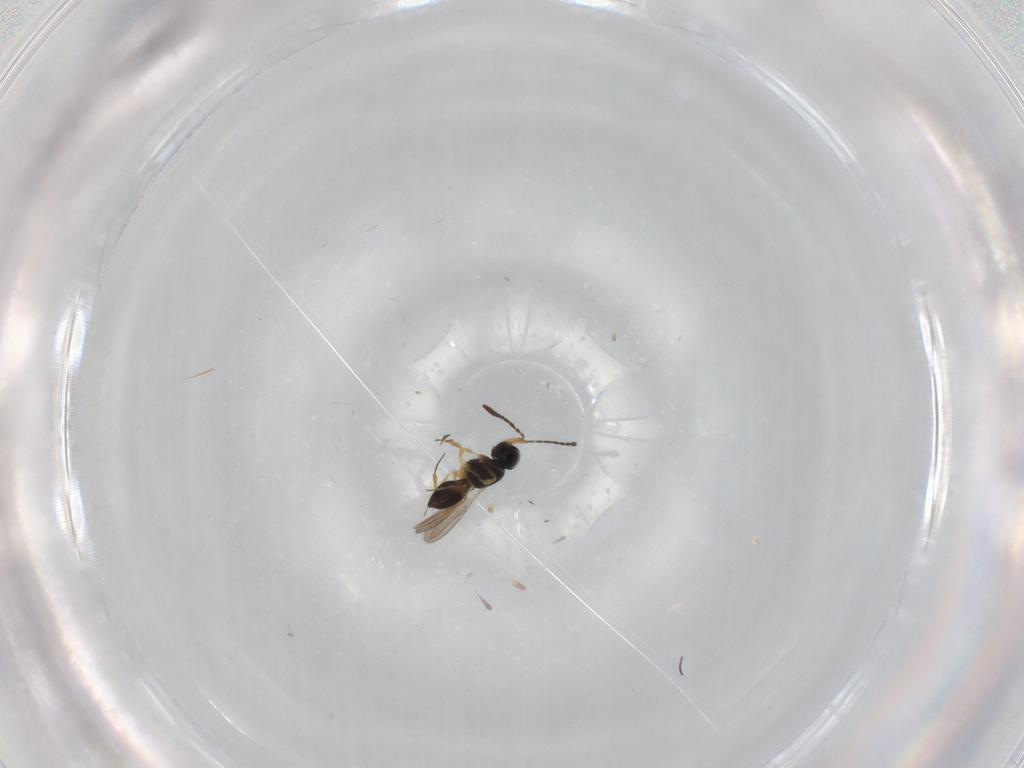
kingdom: Animalia
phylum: Arthropoda
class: Insecta
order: Hymenoptera
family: Scelionidae
